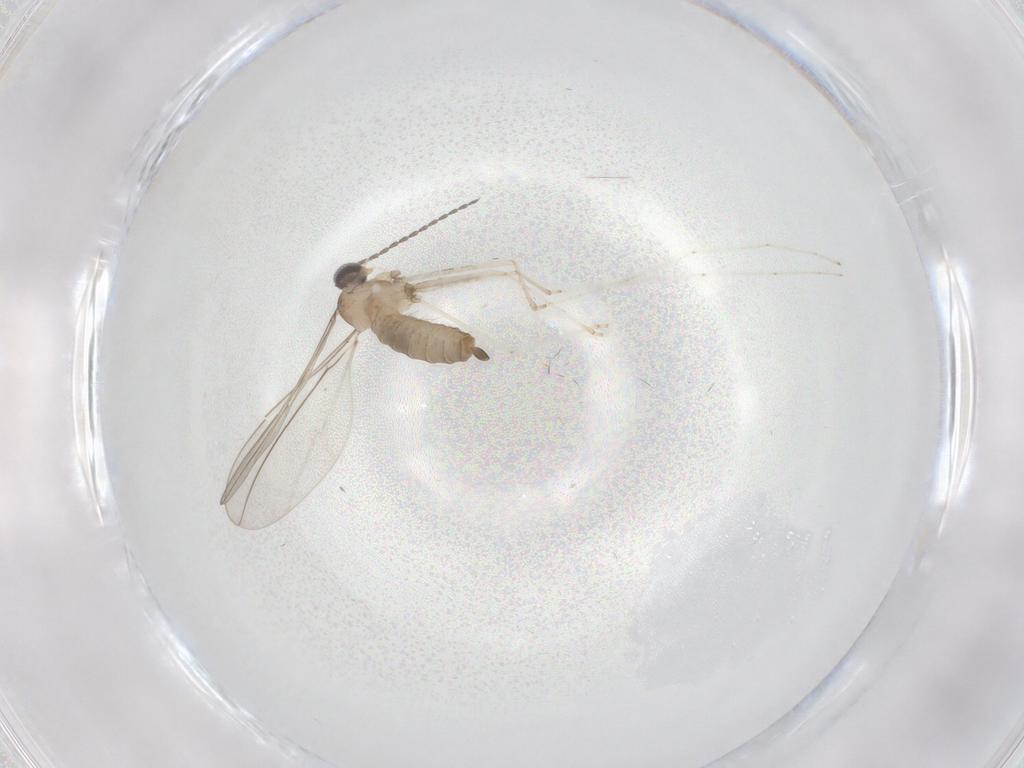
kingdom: Animalia
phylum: Arthropoda
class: Insecta
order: Diptera
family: Cecidomyiidae
